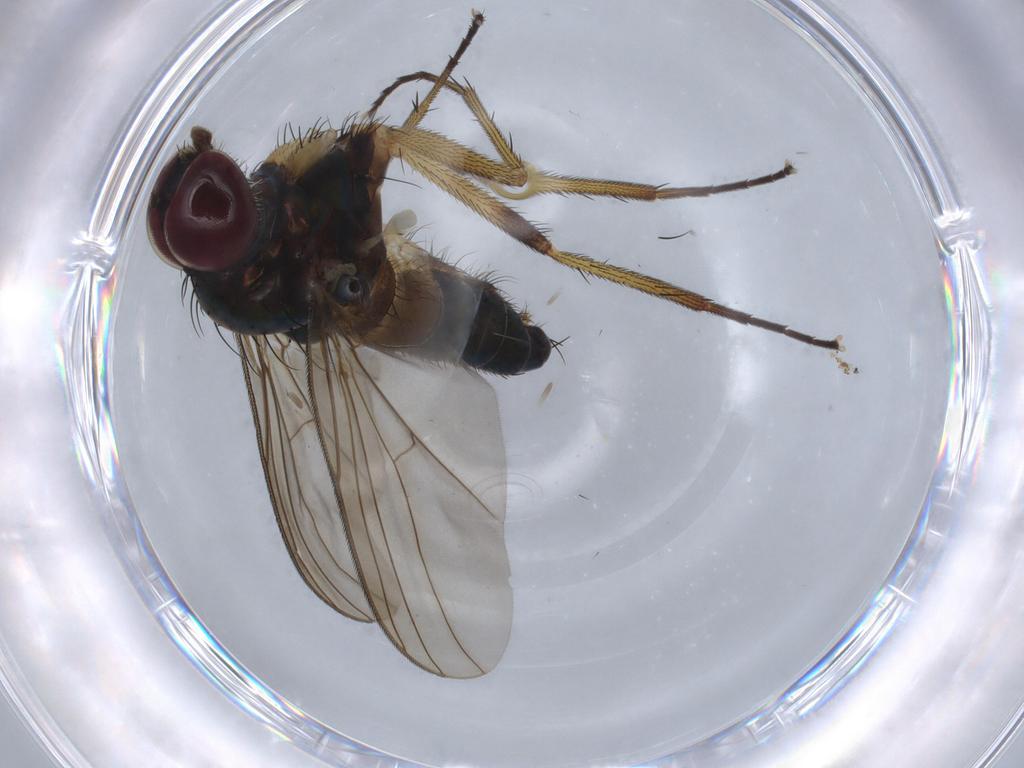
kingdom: Animalia
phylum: Arthropoda
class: Insecta
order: Diptera
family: Dolichopodidae
